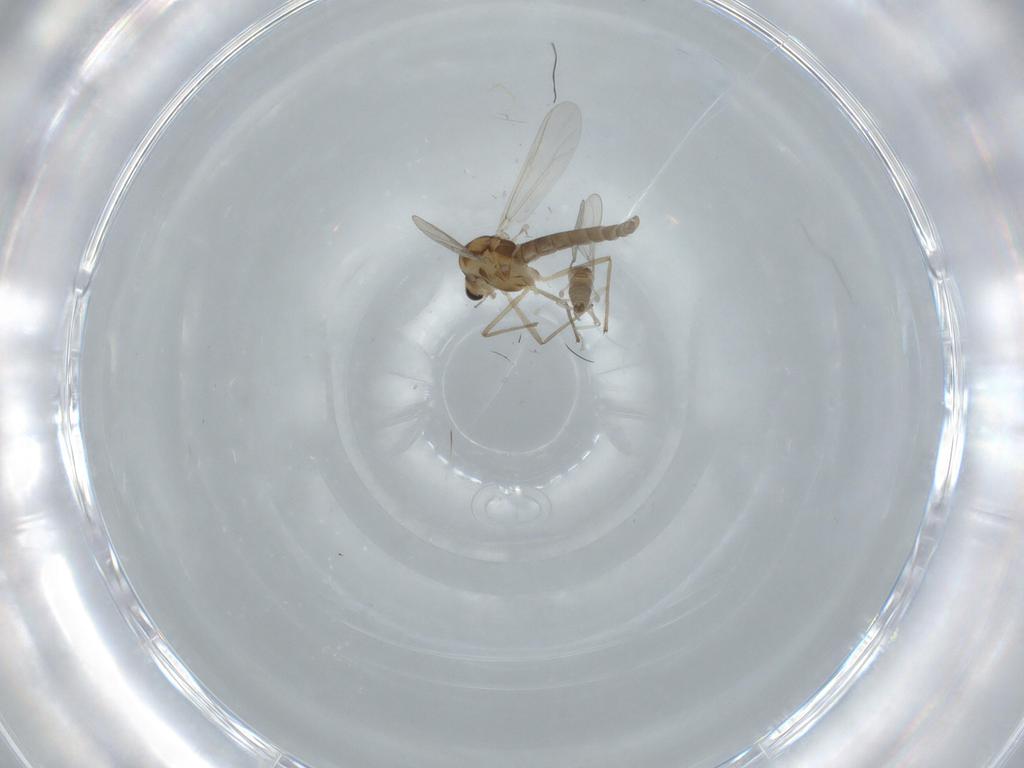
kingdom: Animalia
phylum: Arthropoda
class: Insecta
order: Diptera
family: Chironomidae
